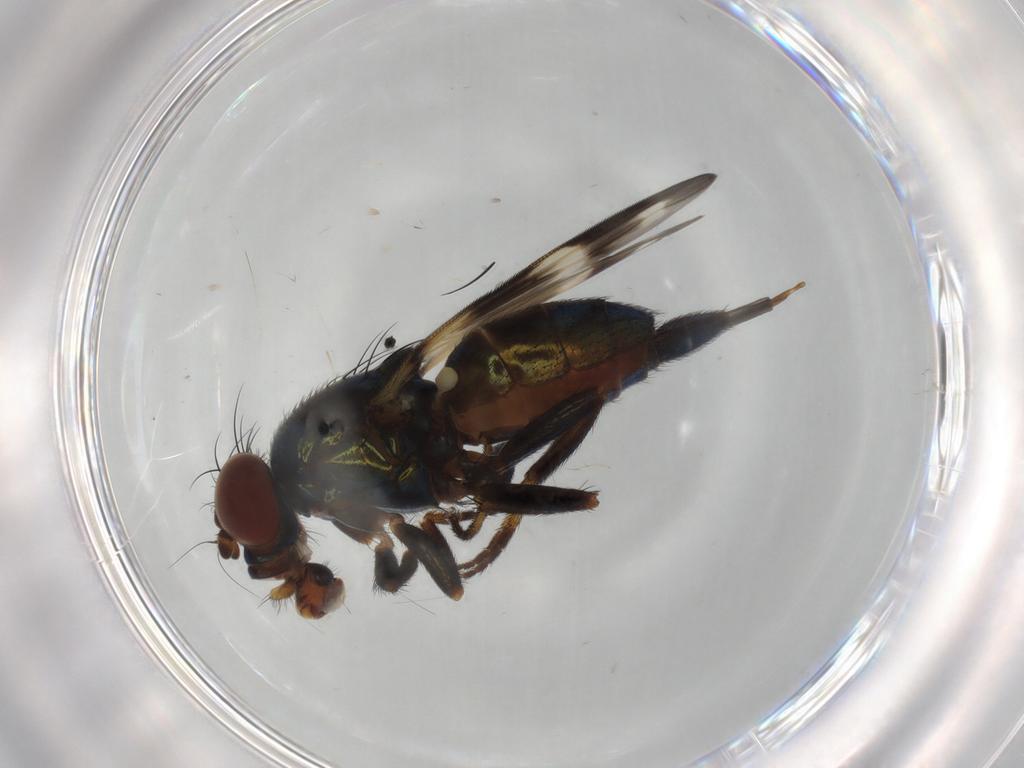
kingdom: Animalia
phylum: Arthropoda
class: Insecta
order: Diptera
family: Ulidiidae
